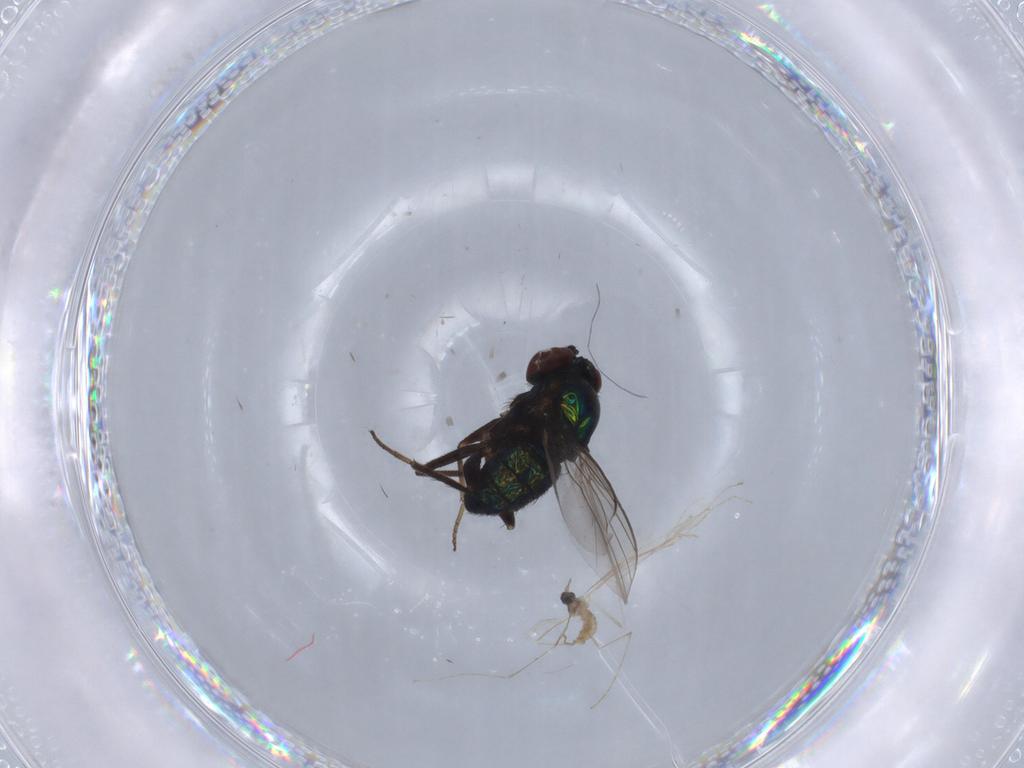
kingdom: Animalia
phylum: Arthropoda
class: Insecta
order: Diptera
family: Dolichopodidae
